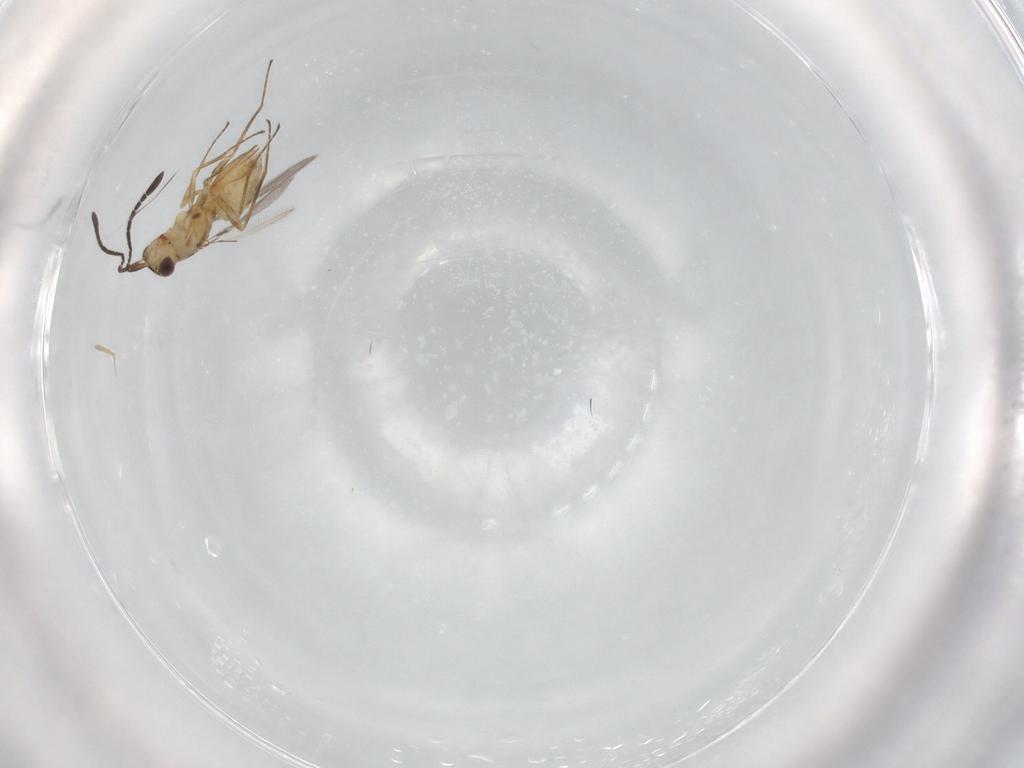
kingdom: Animalia
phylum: Arthropoda
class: Insecta
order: Hymenoptera
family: Mymaridae
